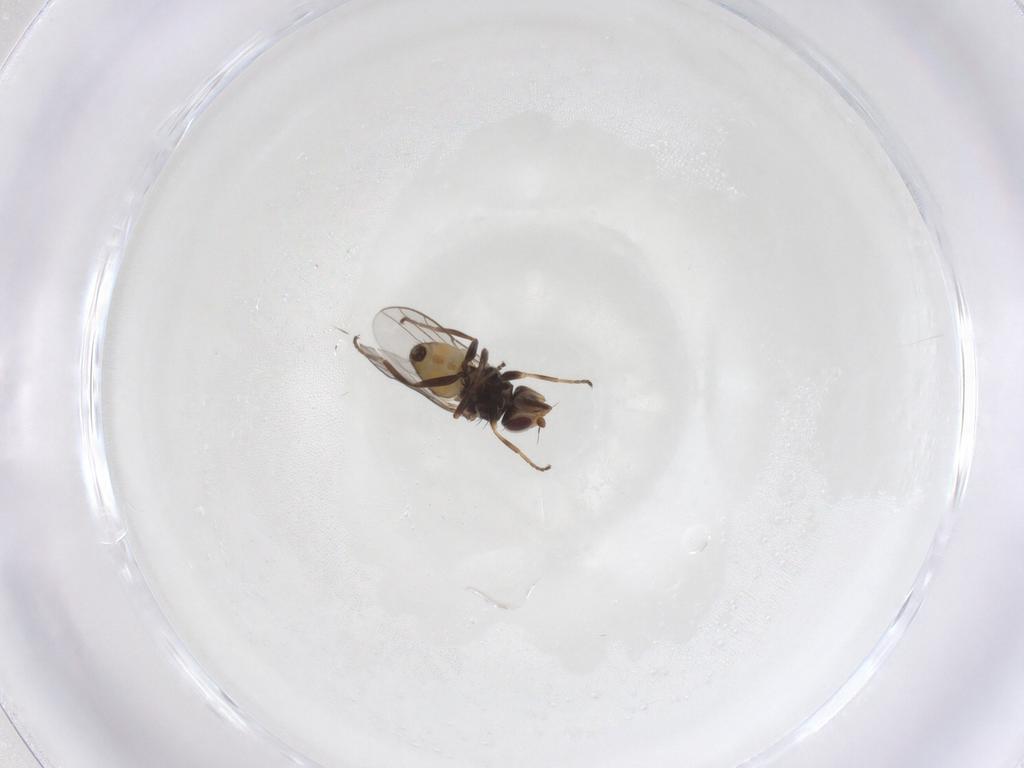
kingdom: Animalia
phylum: Arthropoda
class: Insecta
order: Diptera
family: Chloropidae
